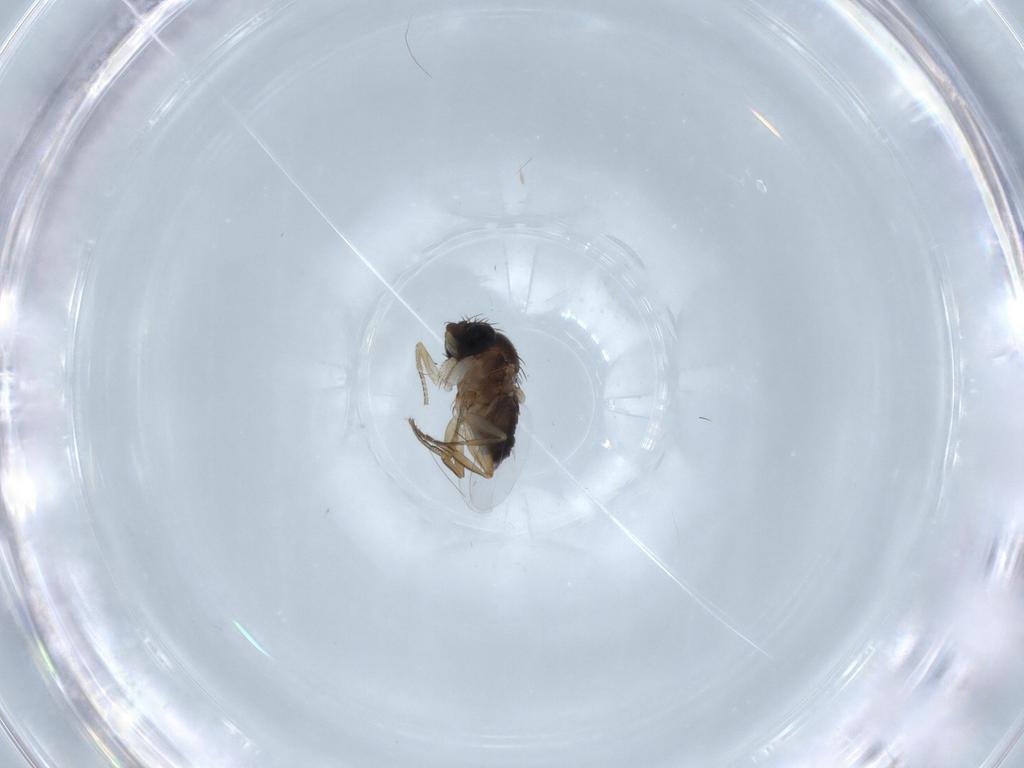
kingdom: Animalia
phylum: Arthropoda
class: Insecta
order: Diptera
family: Phoridae
